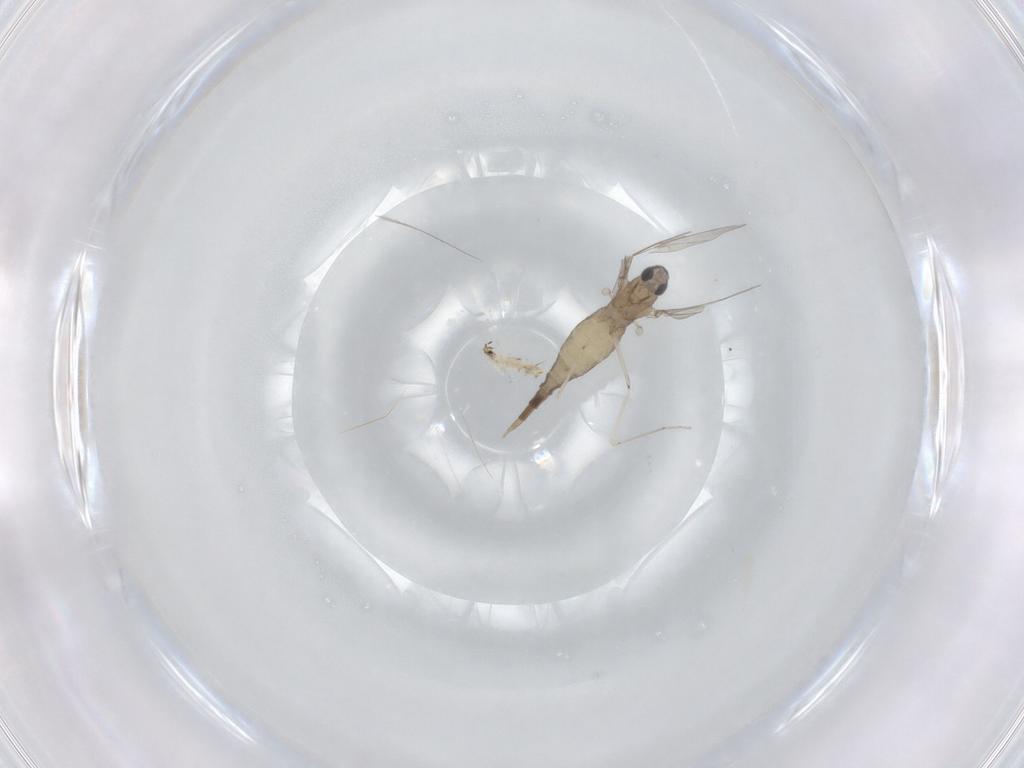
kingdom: Animalia
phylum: Arthropoda
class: Insecta
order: Diptera
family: Cecidomyiidae
